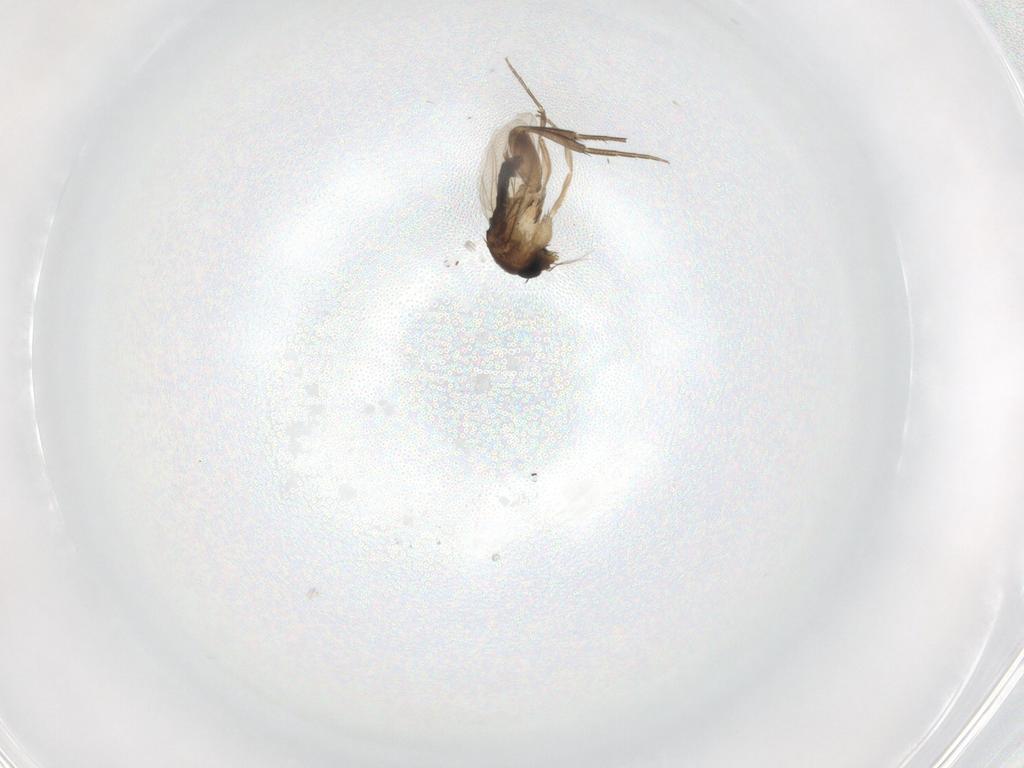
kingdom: Animalia
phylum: Arthropoda
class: Insecta
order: Diptera
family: Phoridae
